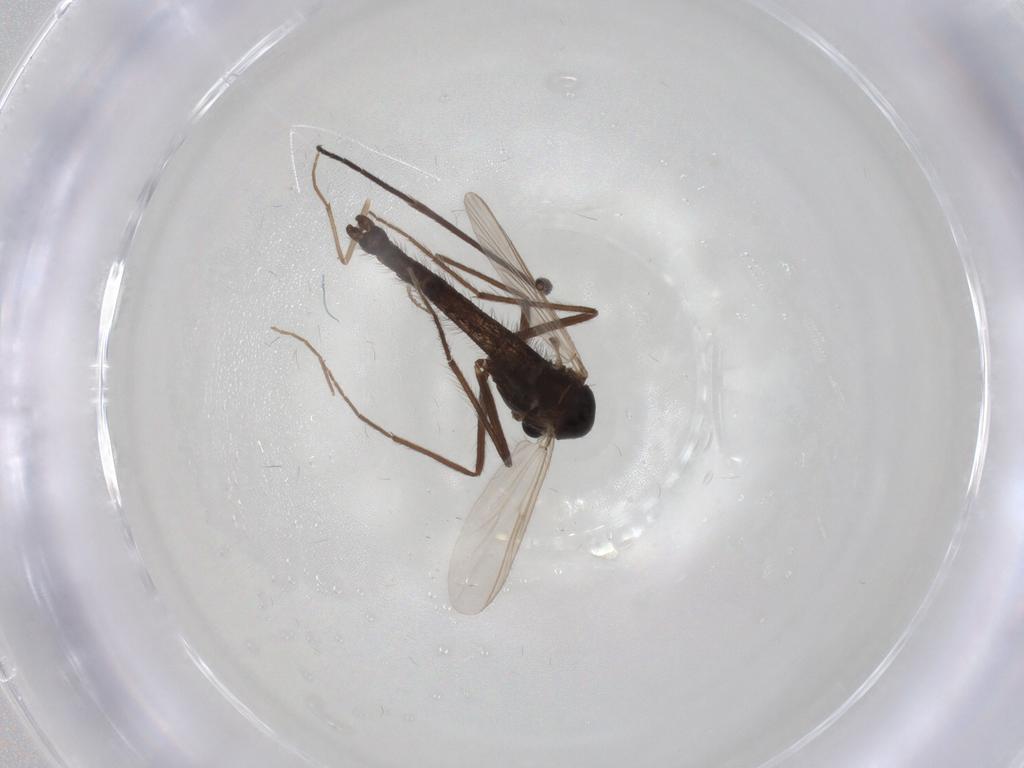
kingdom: Animalia
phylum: Arthropoda
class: Insecta
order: Diptera
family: Chironomidae
